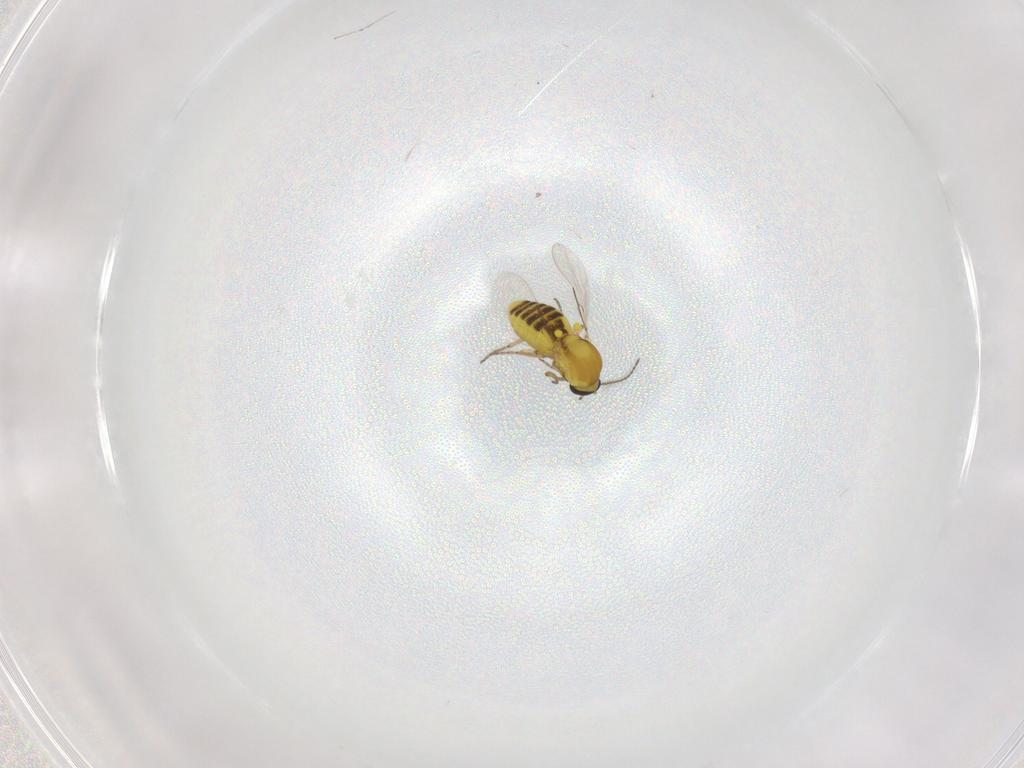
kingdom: Animalia
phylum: Arthropoda
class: Insecta
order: Diptera
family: Ceratopogonidae
